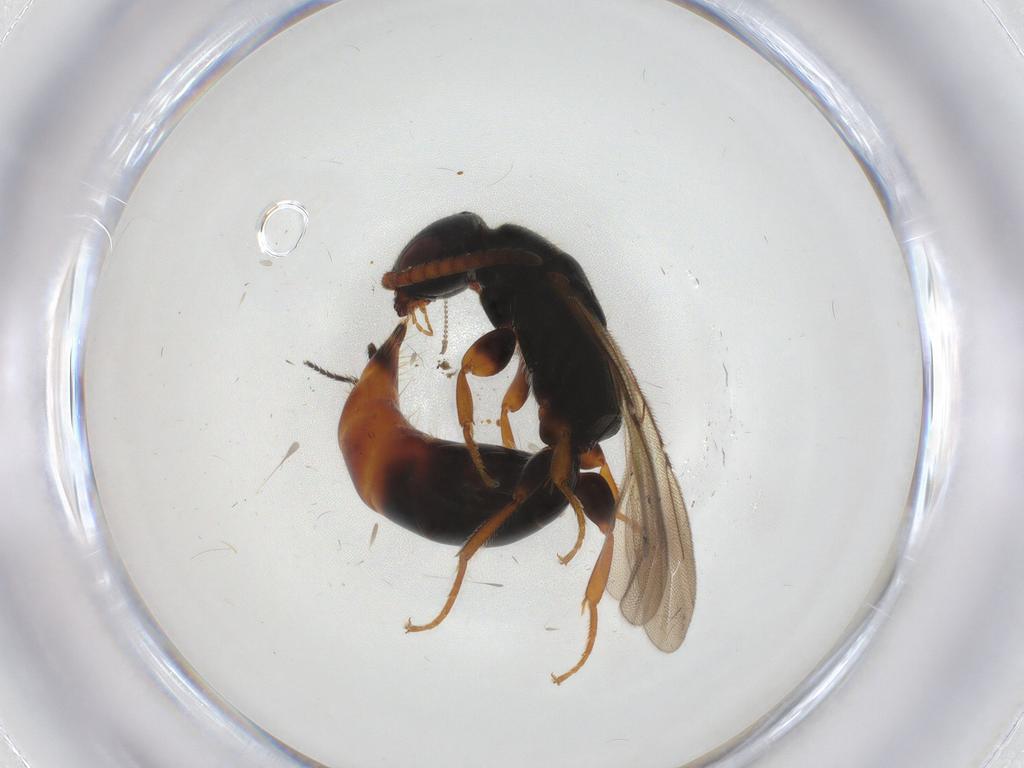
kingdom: Animalia
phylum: Arthropoda
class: Insecta
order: Hymenoptera
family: Bethylidae
